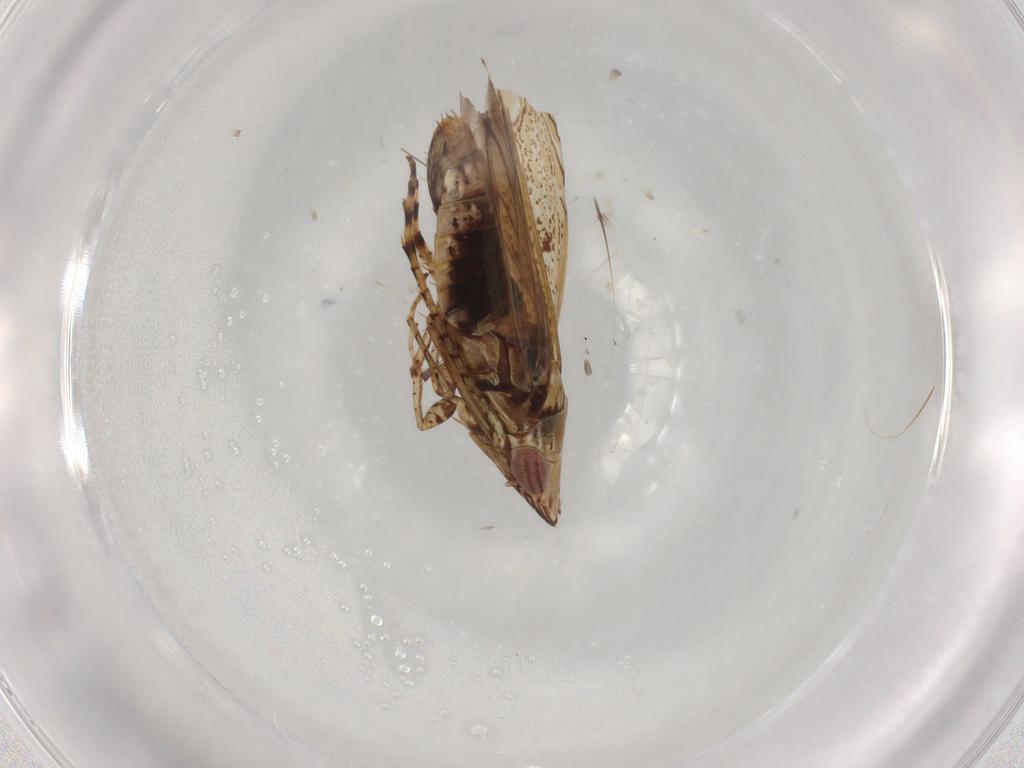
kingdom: Animalia
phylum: Arthropoda
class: Insecta
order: Hemiptera
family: Cicadellidae
